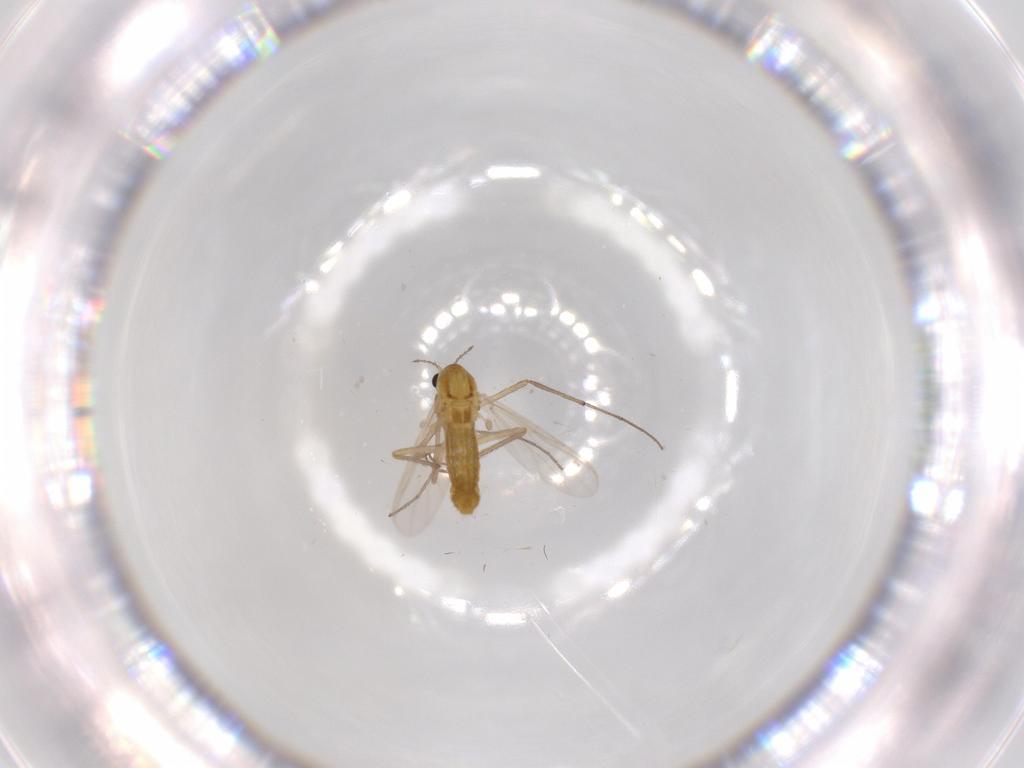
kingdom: Animalia
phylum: Arthropoda
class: Insecta
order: Diptera
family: Chironomidae
